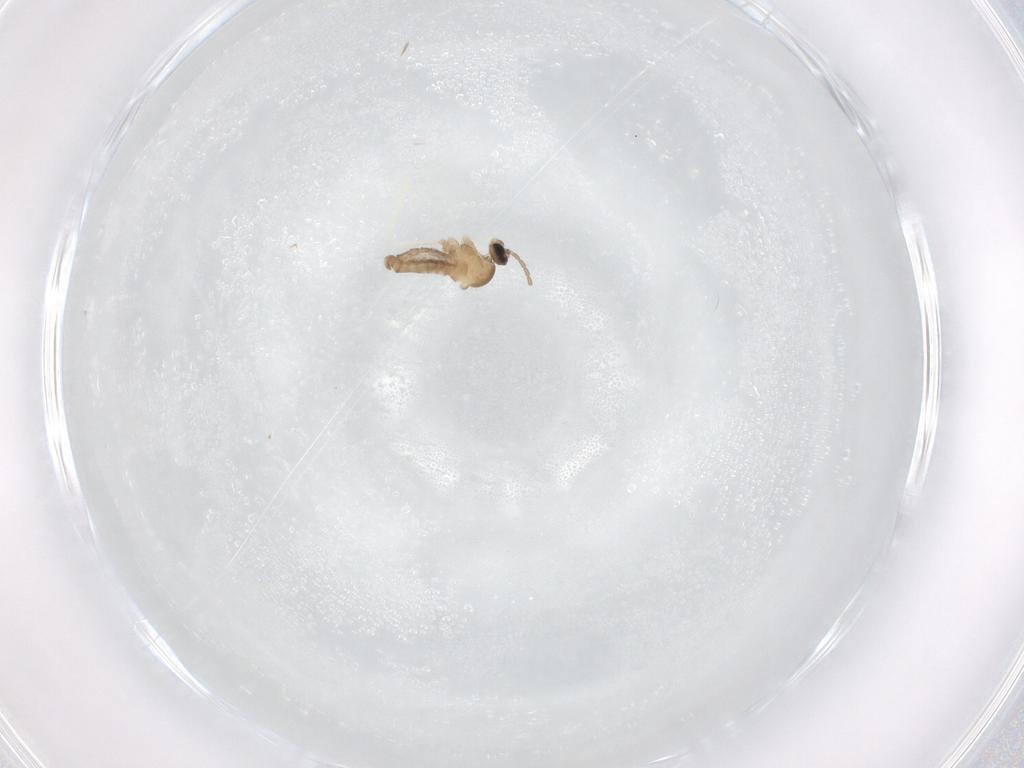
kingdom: Animalia
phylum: Arthropoda
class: Insecta
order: Diptera
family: Cecidomyiidae
